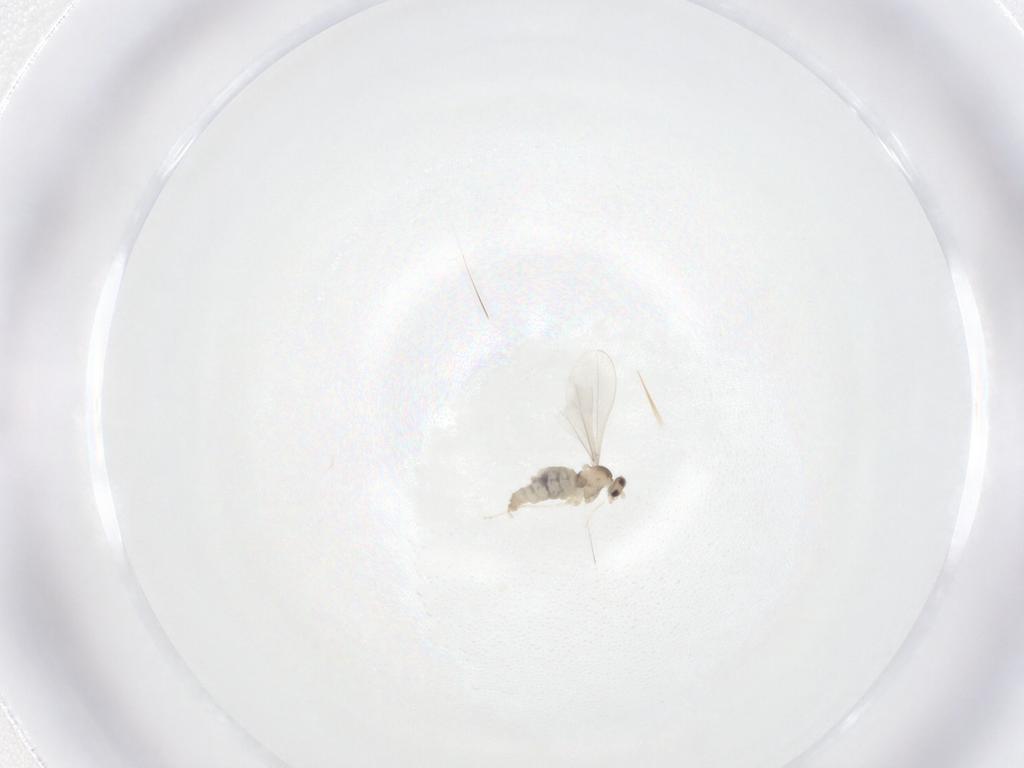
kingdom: Animalia
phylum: Arthropoda
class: Insecta
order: Diptera
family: Cecidomyiidae
